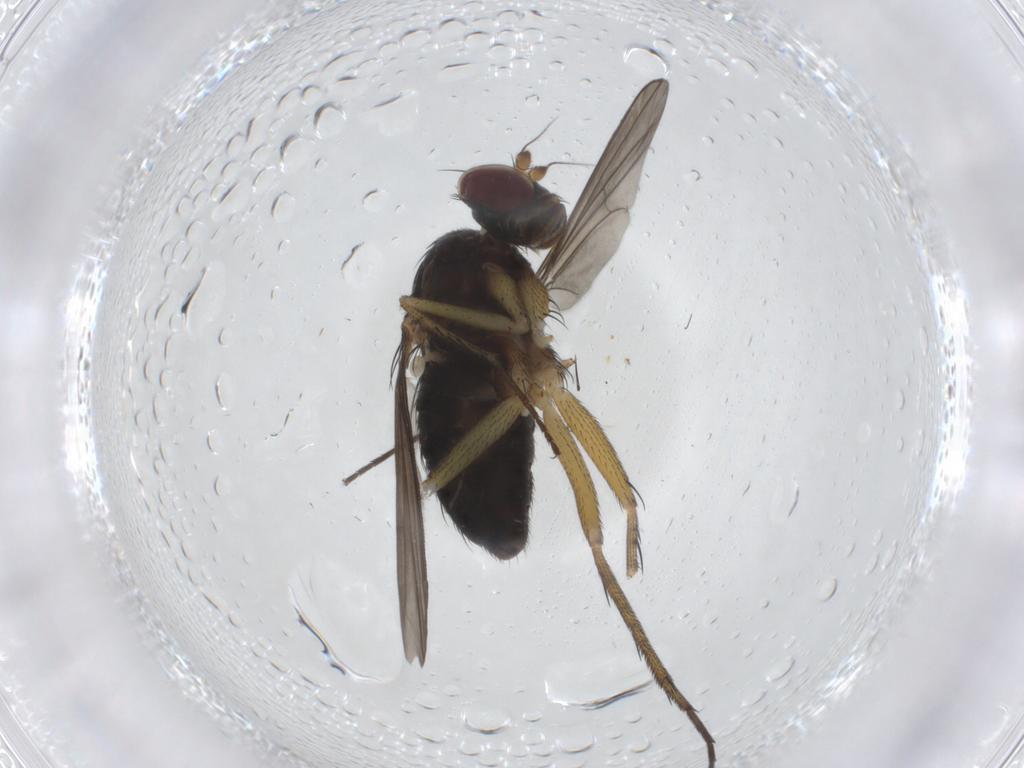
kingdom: Animalia
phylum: Arthropoda
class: Insecta
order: Diptera
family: Dolichopodidae
